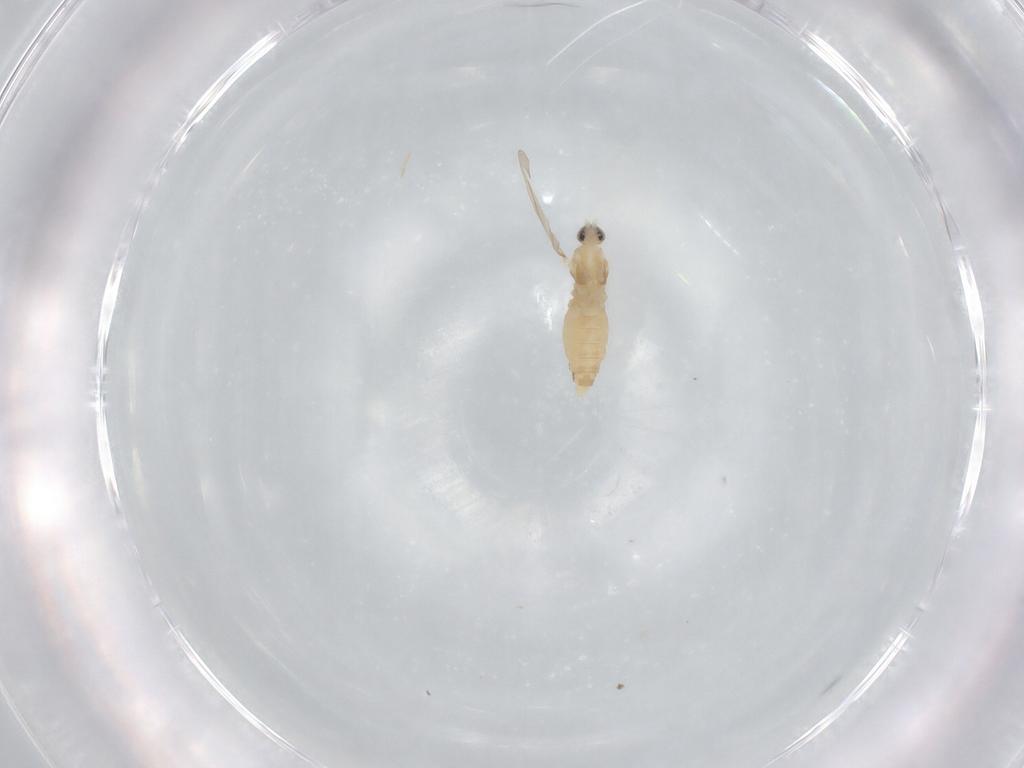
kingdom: Animalia
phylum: Arthropoda
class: Insecta
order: Diptera
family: Cecidomyiidae
